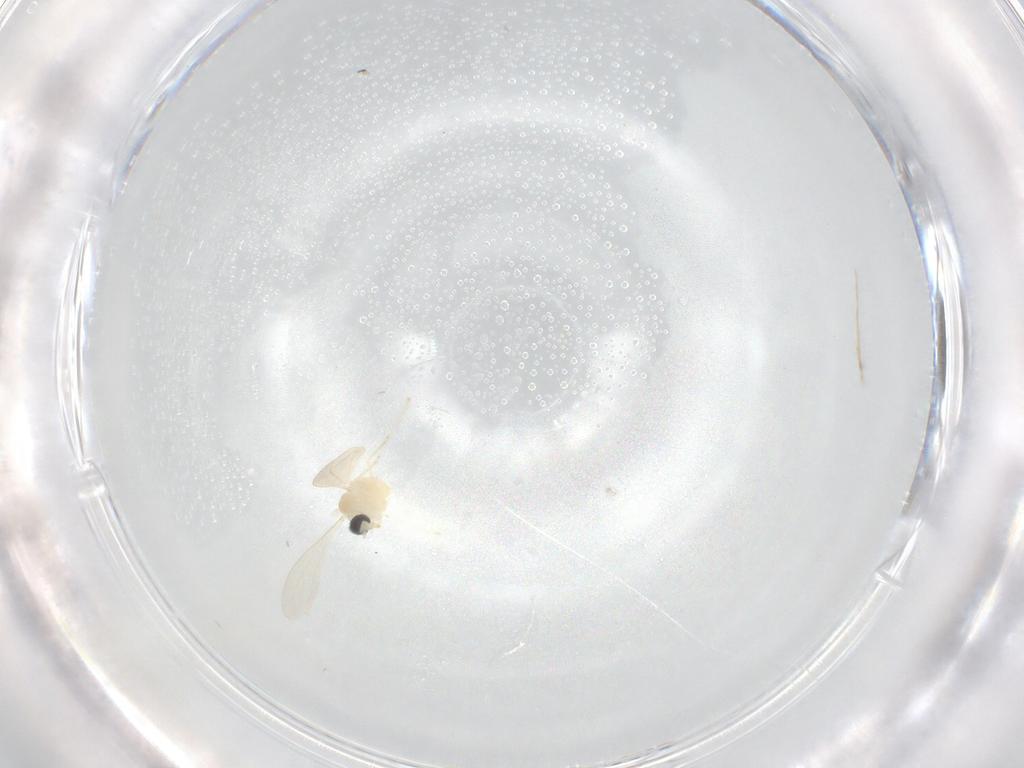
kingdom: Animalia
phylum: Arthropoda
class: Insecta
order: Diptera
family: Cecidomyiidae
